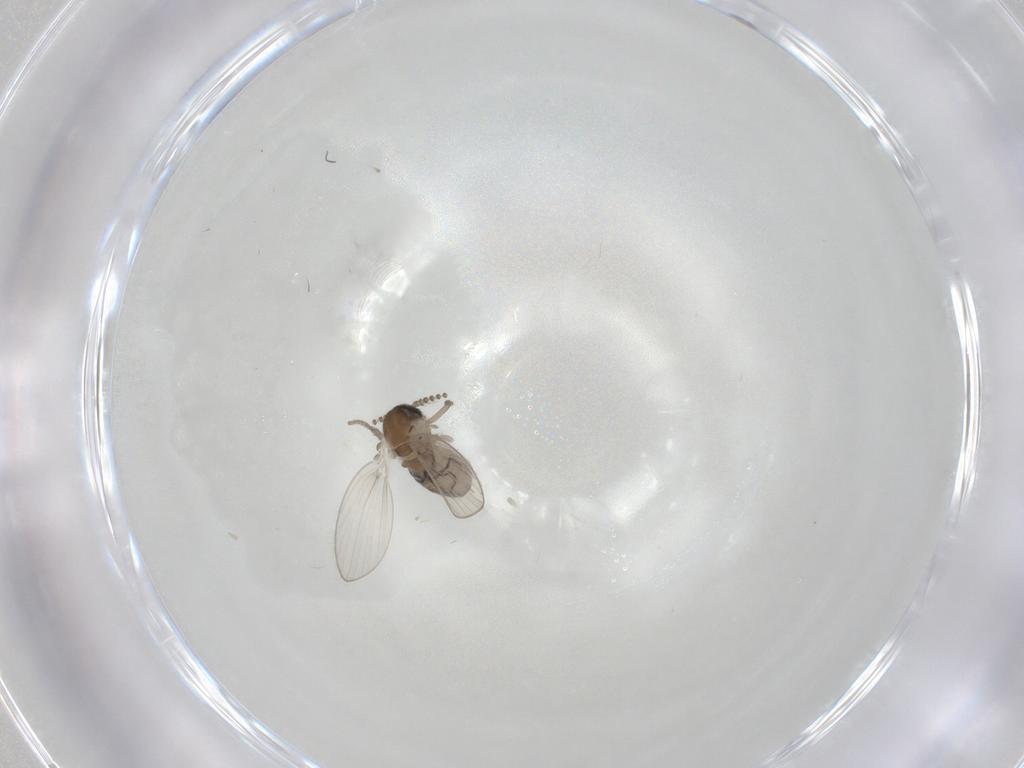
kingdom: Animalia
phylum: Arthropoda
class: Insecta
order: Diptera
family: Psychodidae
